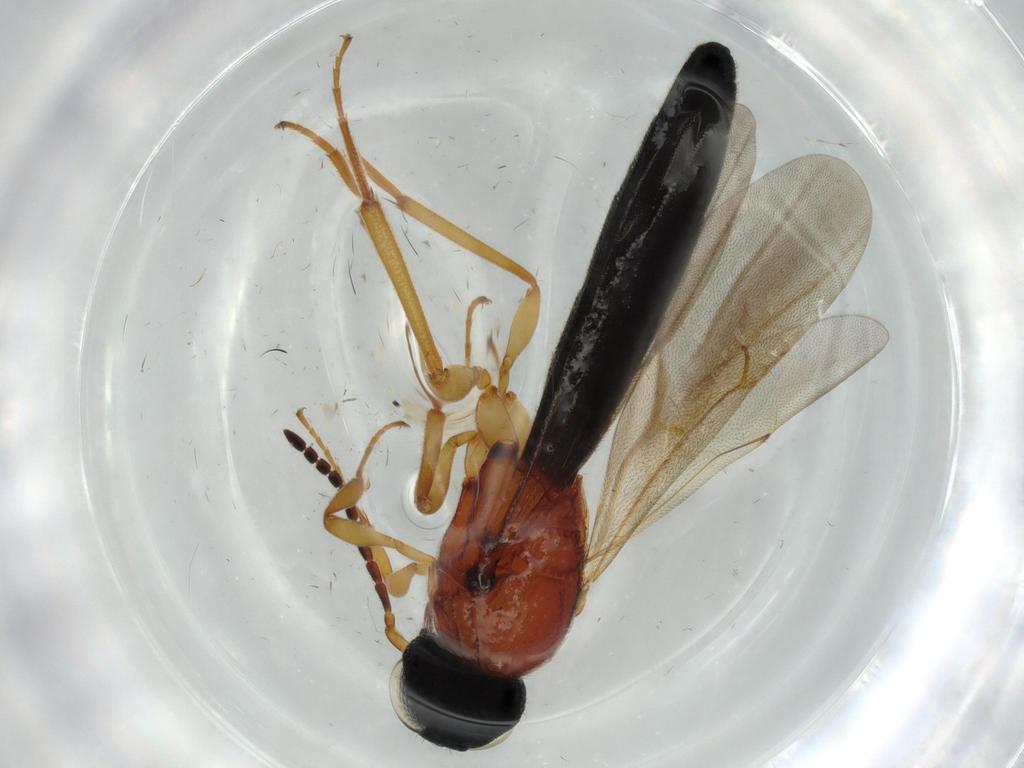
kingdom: Animalia
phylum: Arthropoda
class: Insecta
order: Hymenoptera
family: Scelionidae
